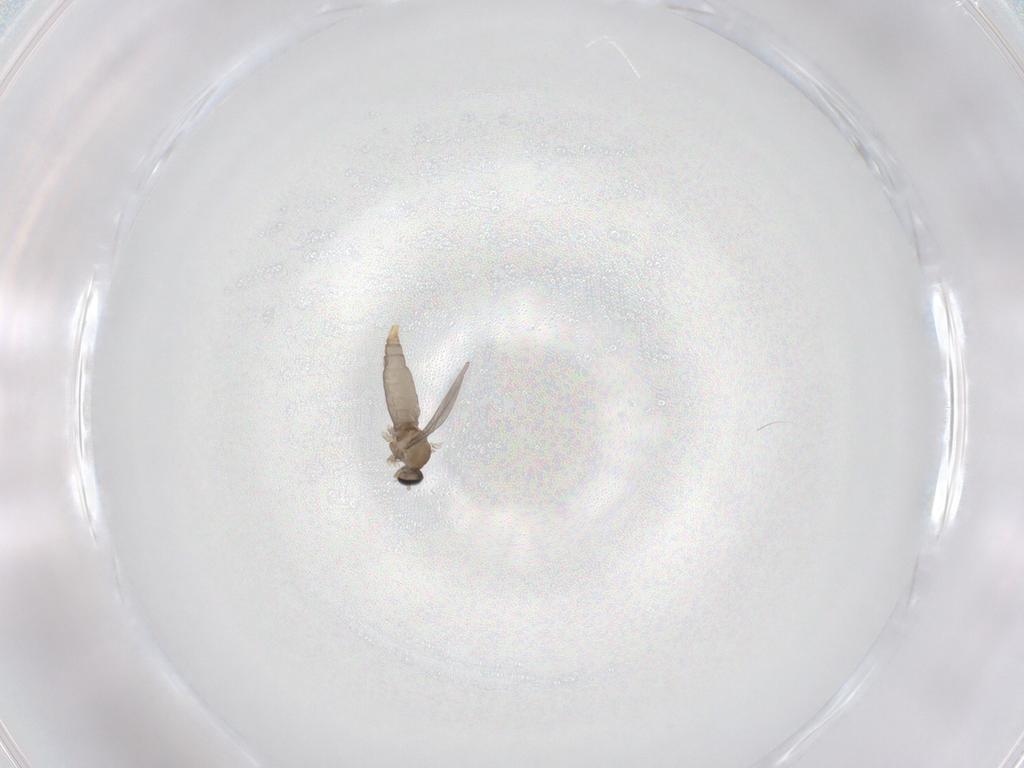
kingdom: Animalia
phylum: Arthropoda
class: Insecta
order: Diptera
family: Cecidomyiidae
